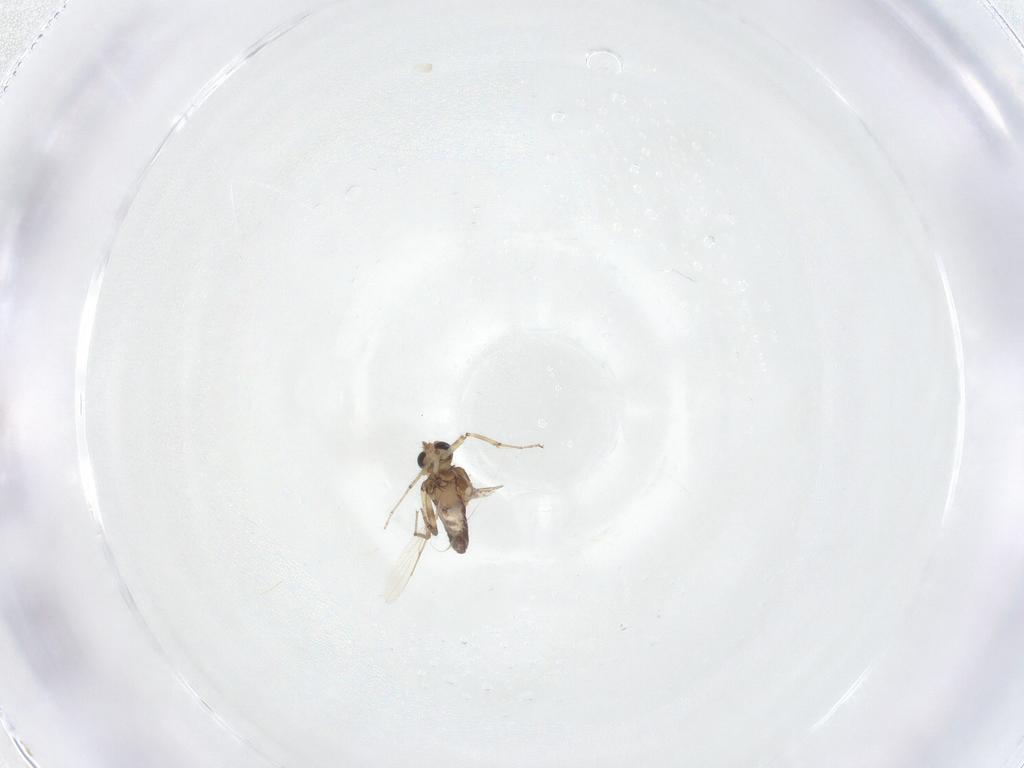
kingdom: Animalia
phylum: Arthropoda
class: Insecta
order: Diptera
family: Ceratopogonidae
